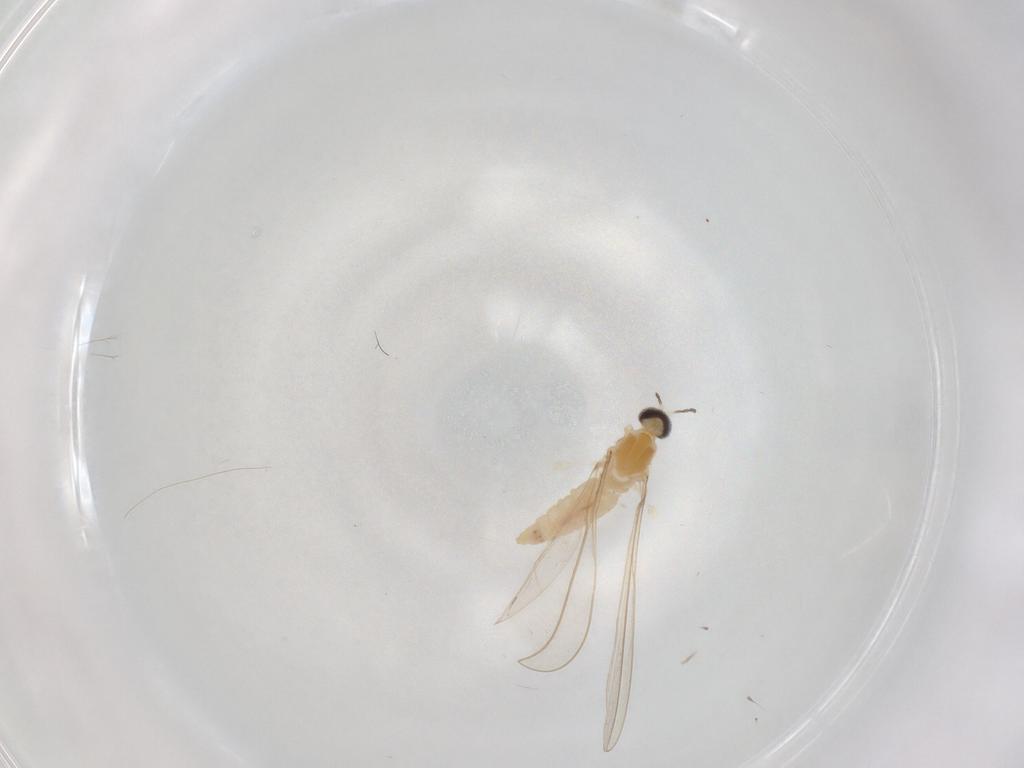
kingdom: Animalia
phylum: Arthropoda
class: Insecta
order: Diptera
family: Cecidomyiidae
